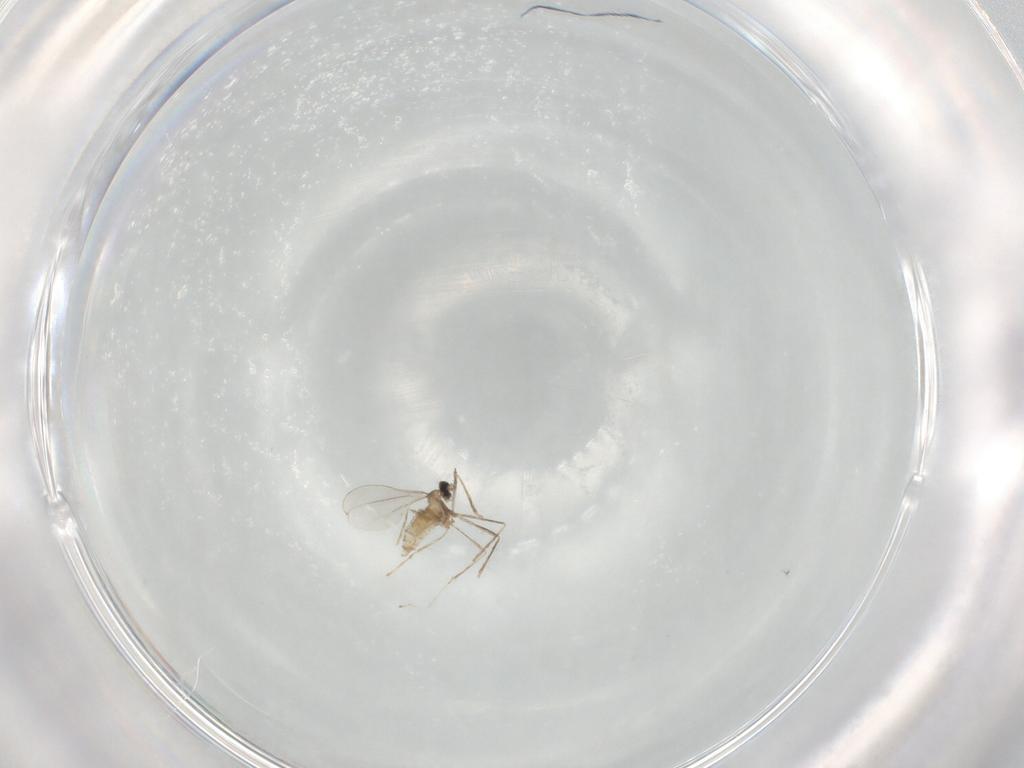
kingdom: Animalia
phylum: Arthropoda
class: Insecta
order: Diptera
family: Cecidomyiidae
